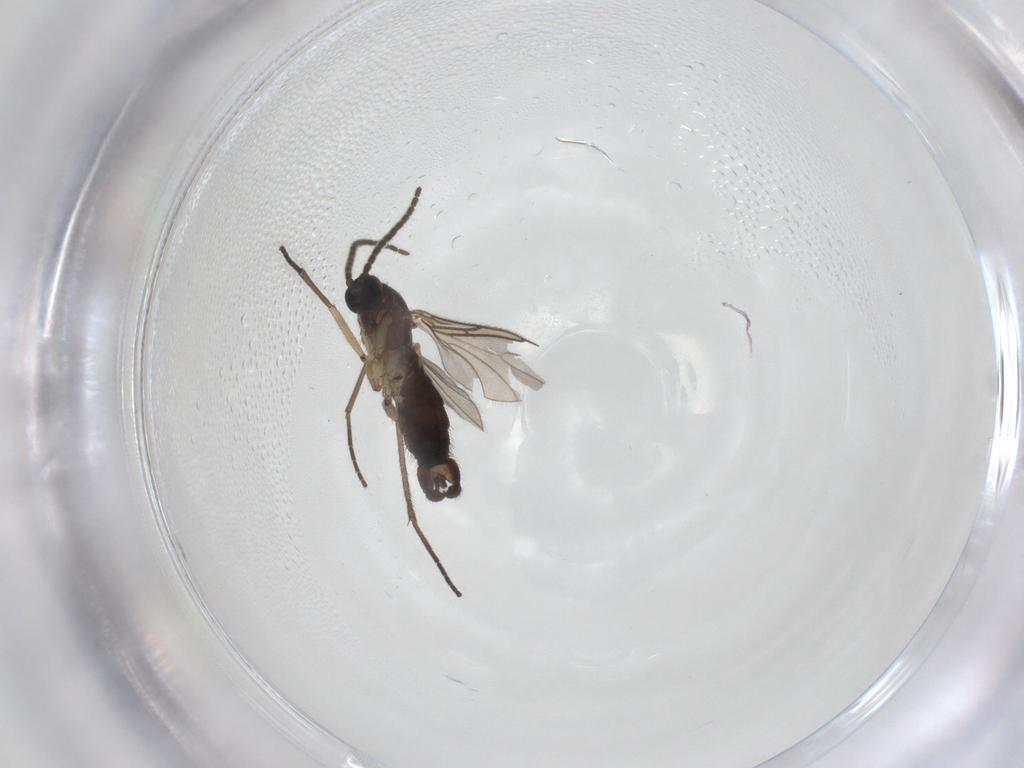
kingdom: Animalia
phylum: Arthropoda
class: Insecta
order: Diptera
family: Sciaridae
